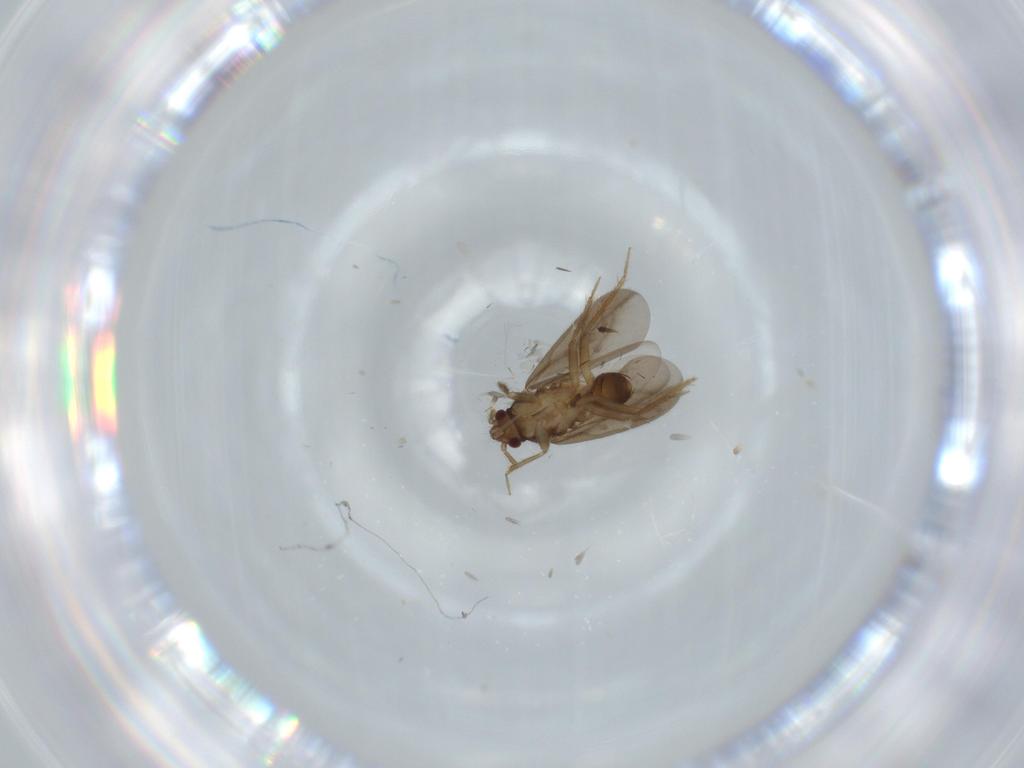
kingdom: Animalia
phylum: Arthropoda
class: Insecta
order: Hemiptera
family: Ceratocombidae
